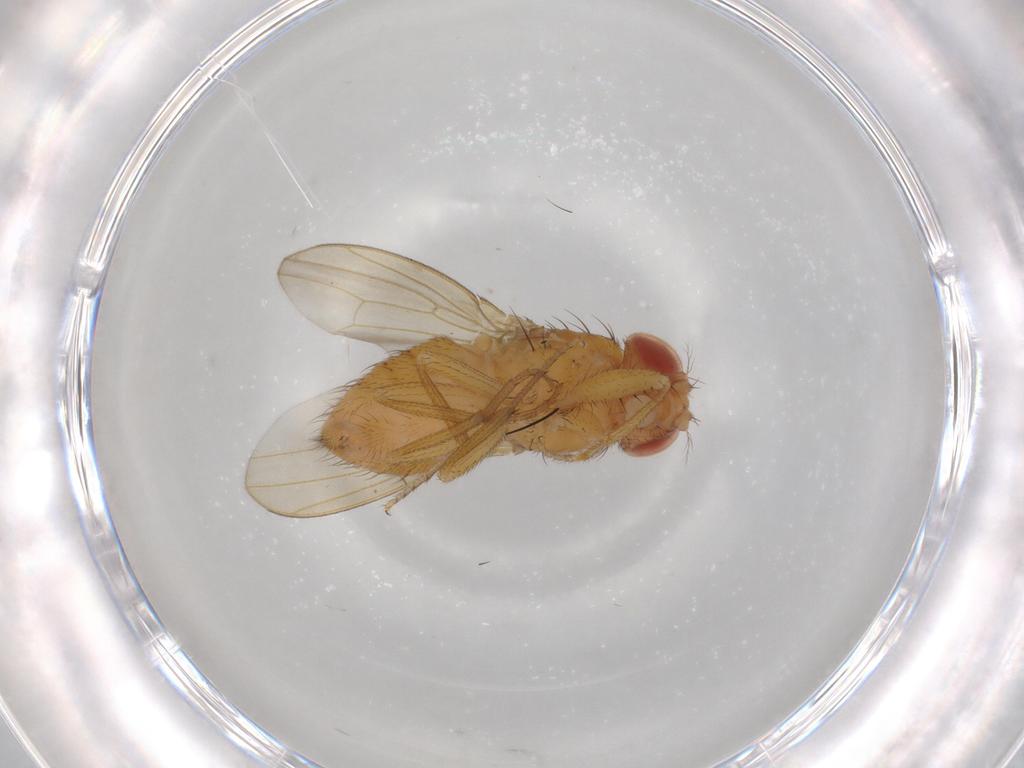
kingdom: Animalia
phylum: Arthropoda
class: Insecta
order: Diptera
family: Drosophilidae
